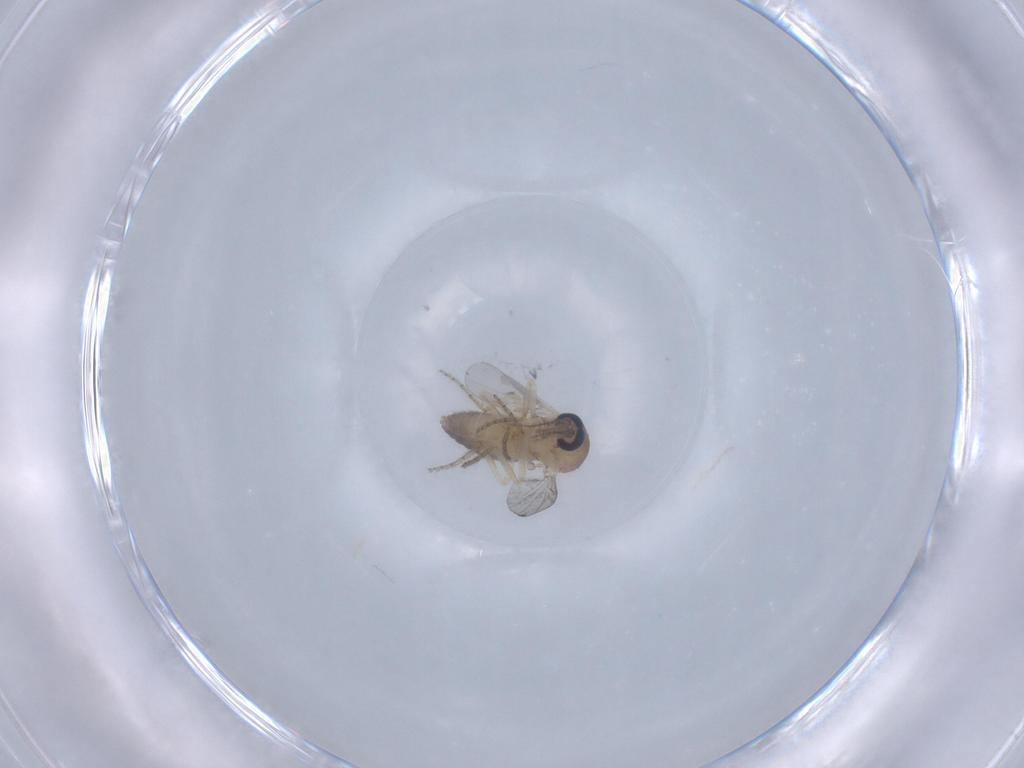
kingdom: Animalia
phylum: Arthropoda
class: Insecta
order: Diptera
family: Ceratopogonidae
